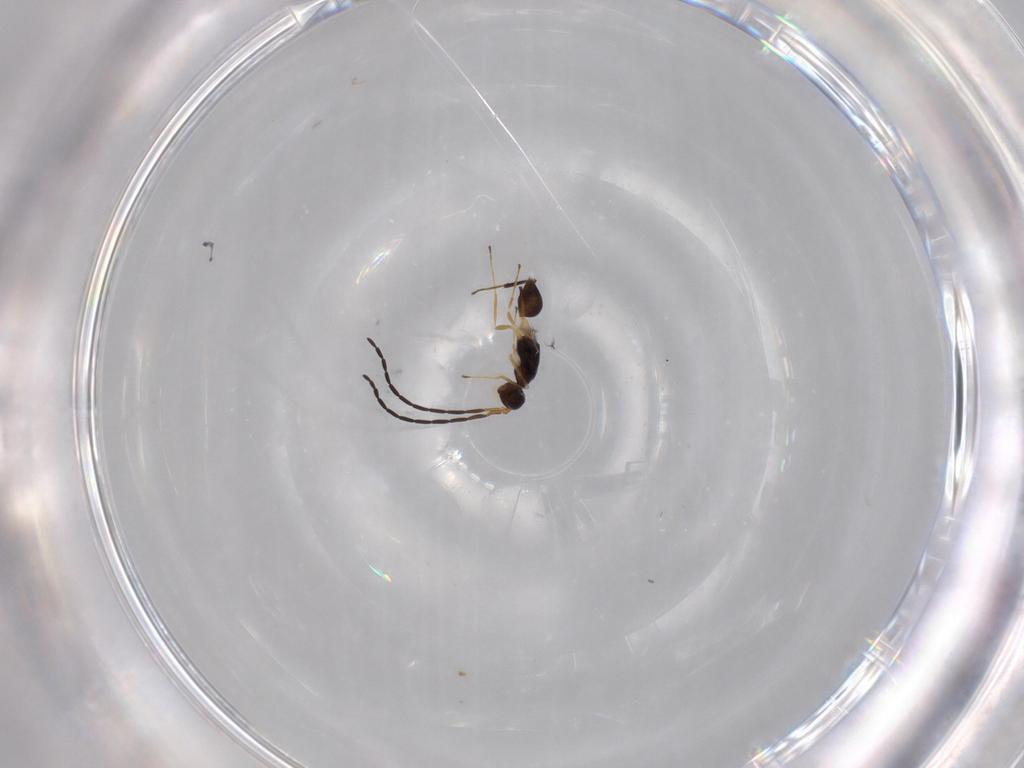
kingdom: Animalia
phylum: Arthropoda
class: Insecta
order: Hymenoptera
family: Mymaridae
